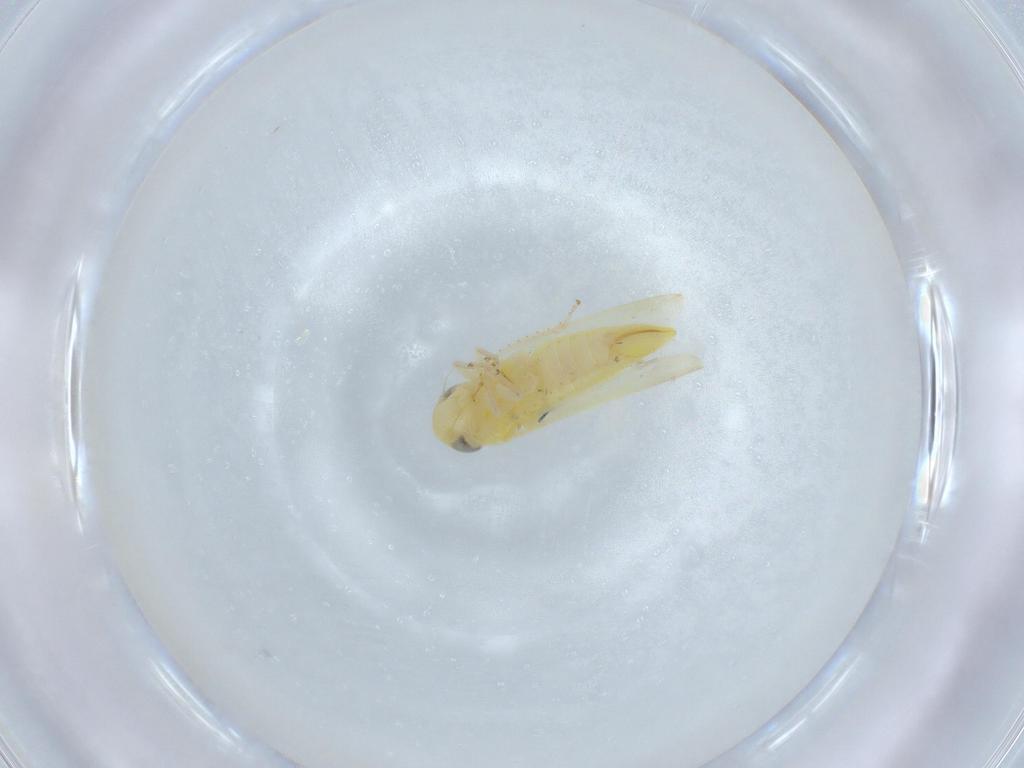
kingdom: Animalia
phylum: Arthropoda
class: Insecta
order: Hemiptera
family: Cicadellidae
